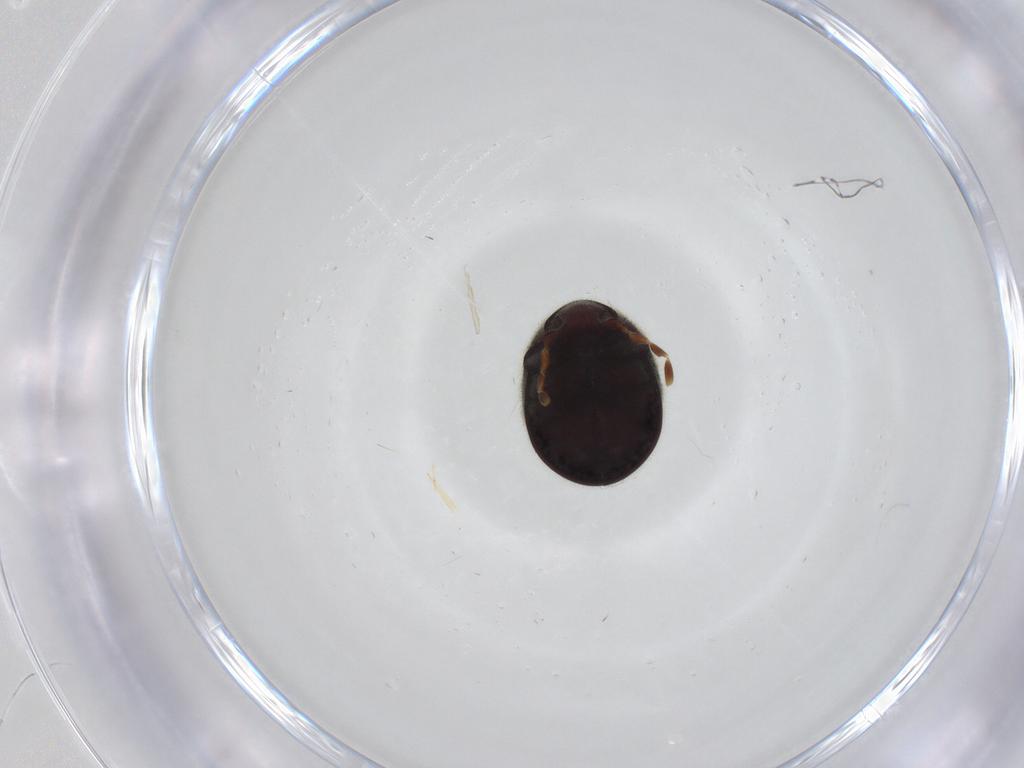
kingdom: Animalia
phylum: Arthropoda
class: Insecta
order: Coleoptera
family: Ptinidae
